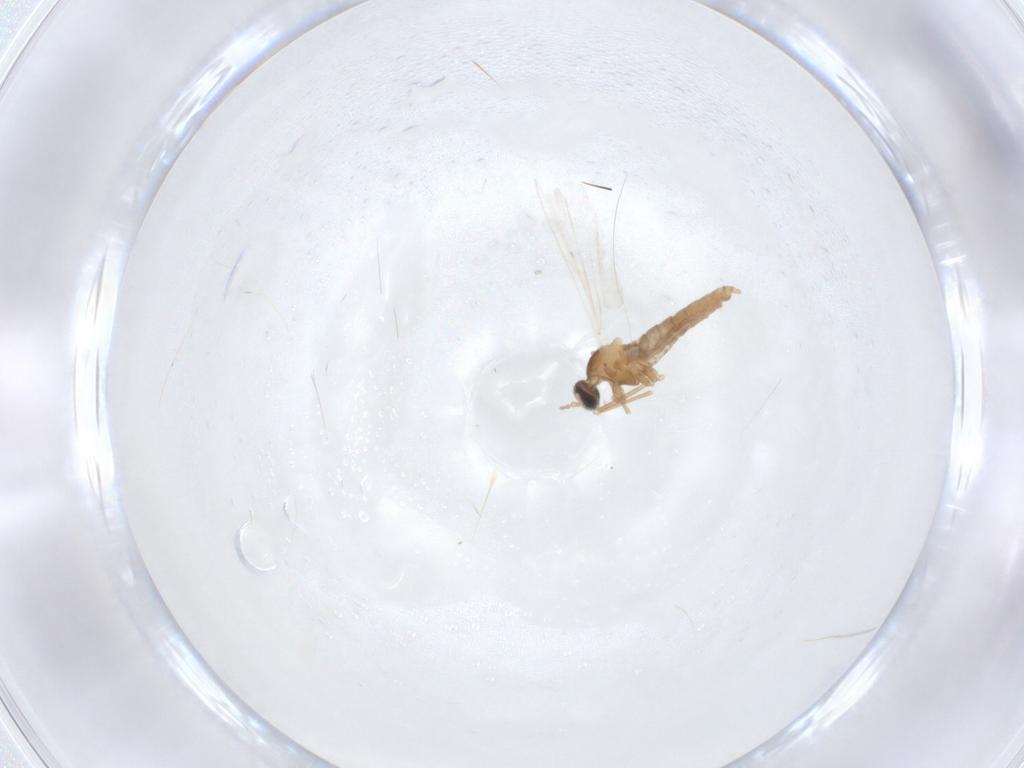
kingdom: Animalia
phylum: Arthropoda
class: Insecta
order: Diptera
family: Cecidomyiidae
